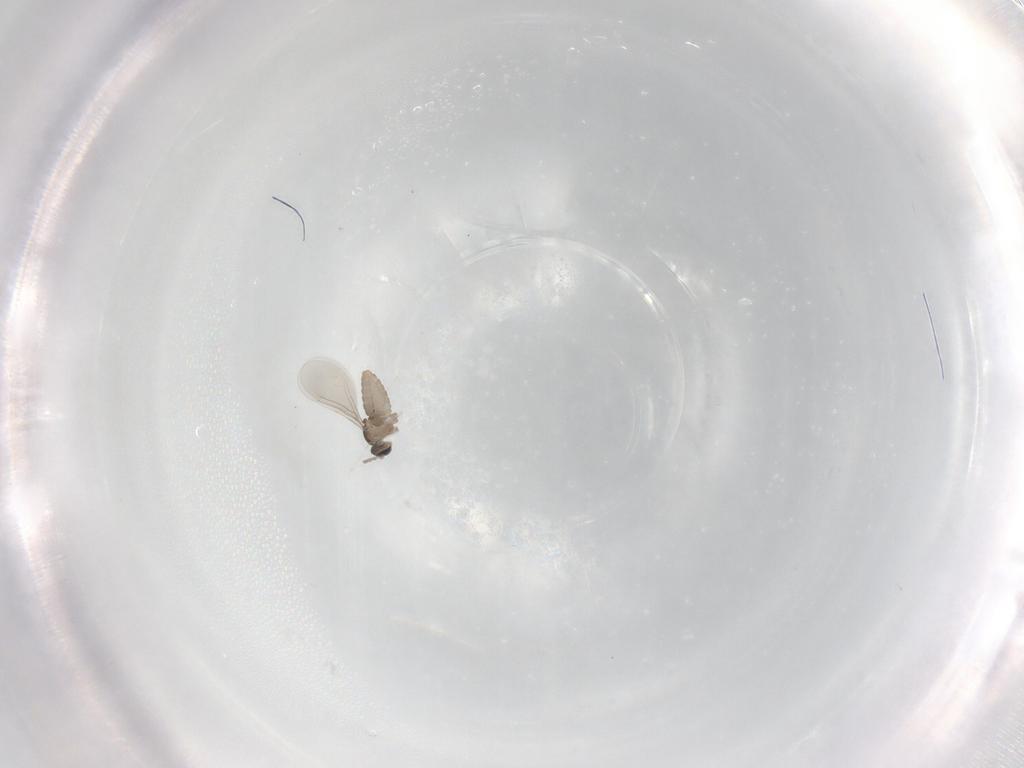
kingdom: Animalia
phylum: Arthropoda
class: Insecta
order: Diptera
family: Cecidomyiidae
